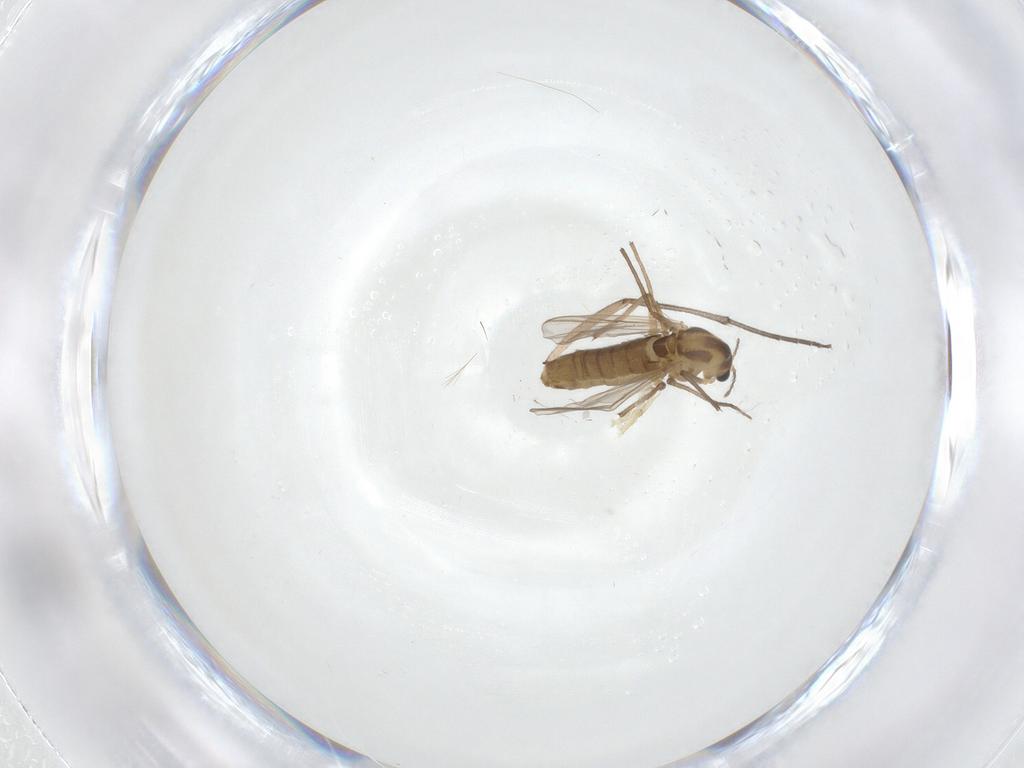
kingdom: Animalia
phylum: Arthropoda
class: Insecta
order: Diptera
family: Chironomidae
